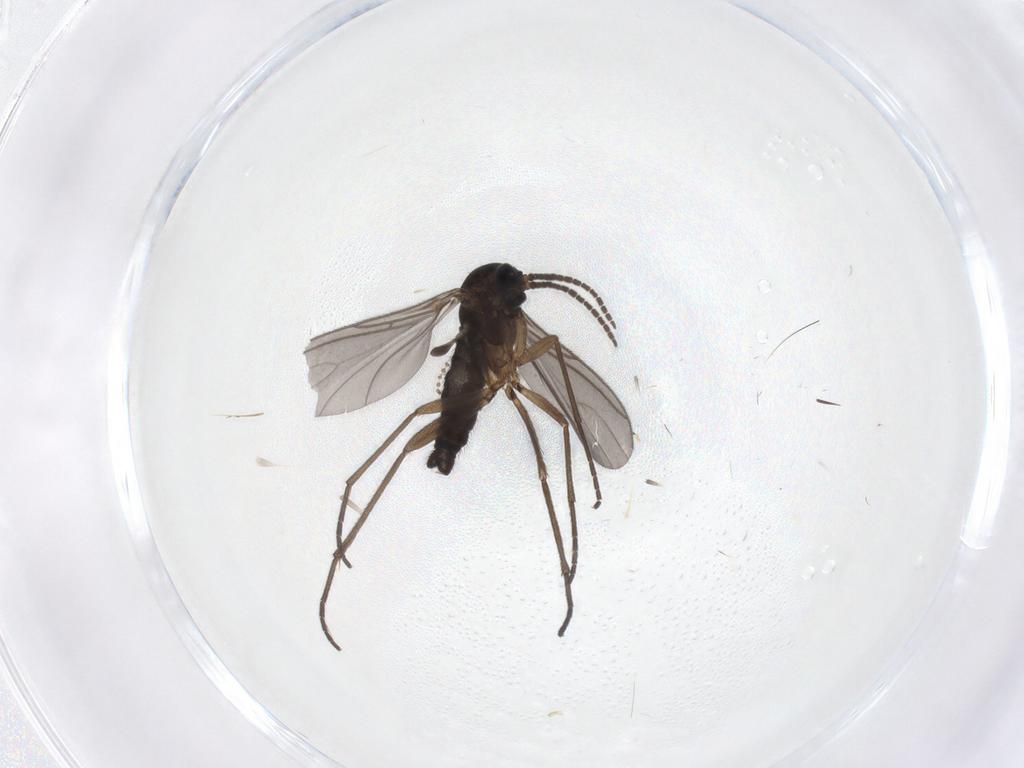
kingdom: Animalia
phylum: Arthropoda
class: Insecta
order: Diptera
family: Sciaridae
